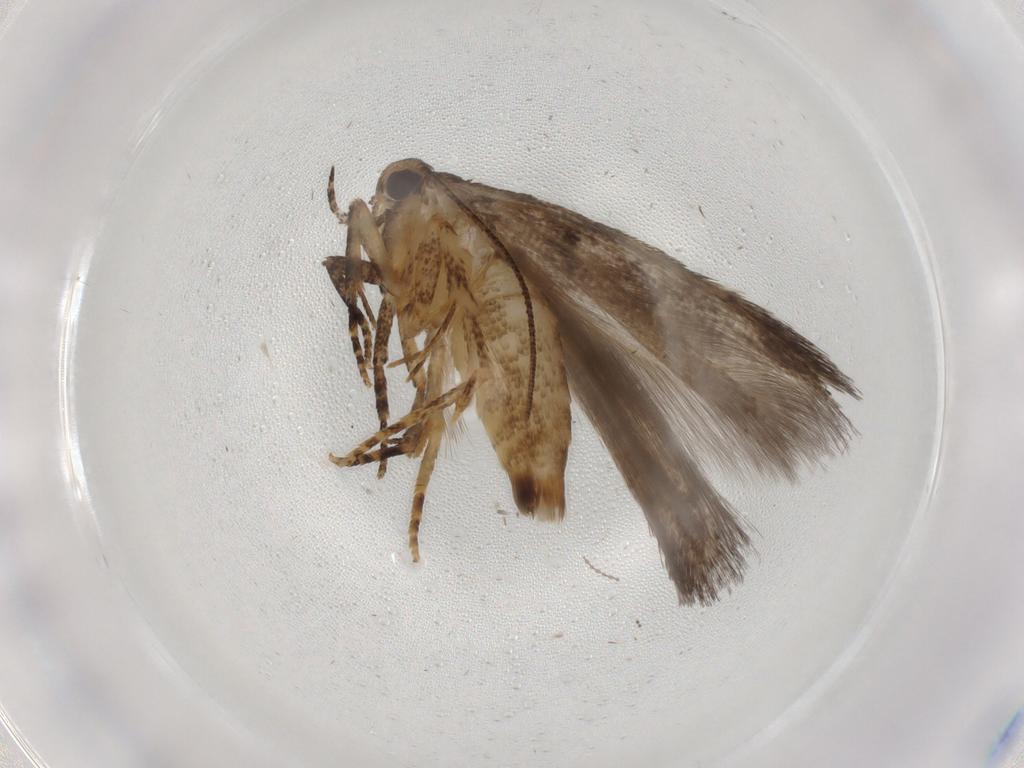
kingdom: Animalia
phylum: Arthropoda
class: Insecta
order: Lepidoptera
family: Gelechiidae
